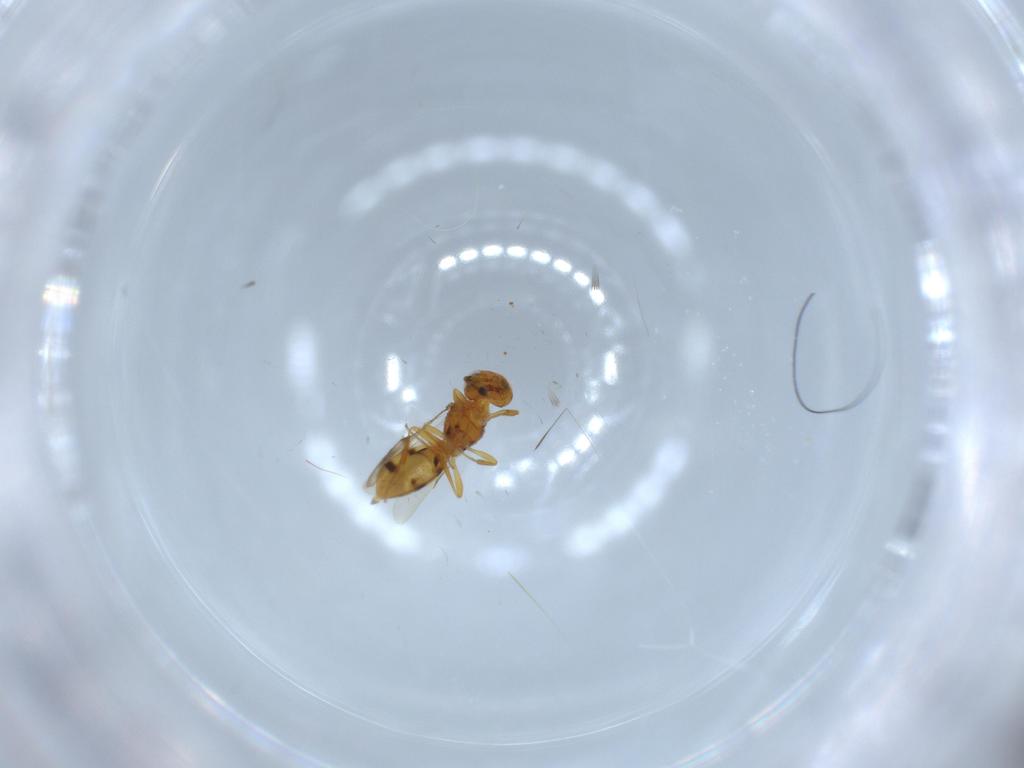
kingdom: Animalia
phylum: Arthropoda
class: Insecta
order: Hymenoptera
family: Scelionidae
